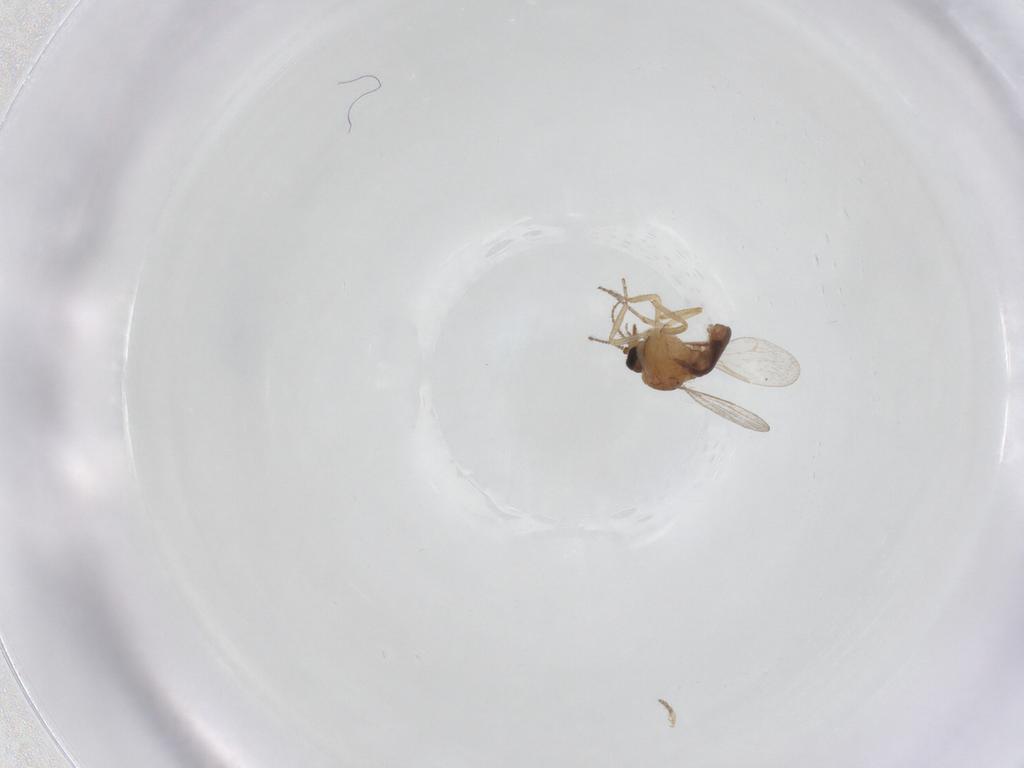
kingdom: Animalia
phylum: Arthropoda
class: Insecta
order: Diptera
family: Ceratopogonidae
